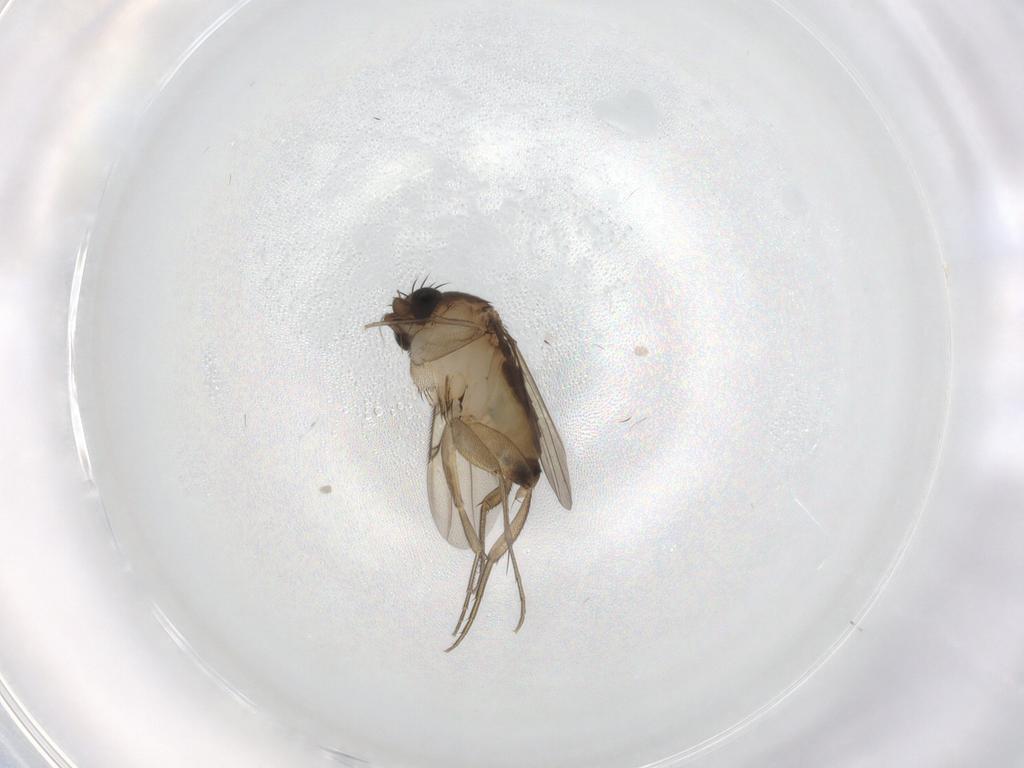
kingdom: Animalia
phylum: Arthropoda
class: Insecta
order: Diptera
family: Phoridae
